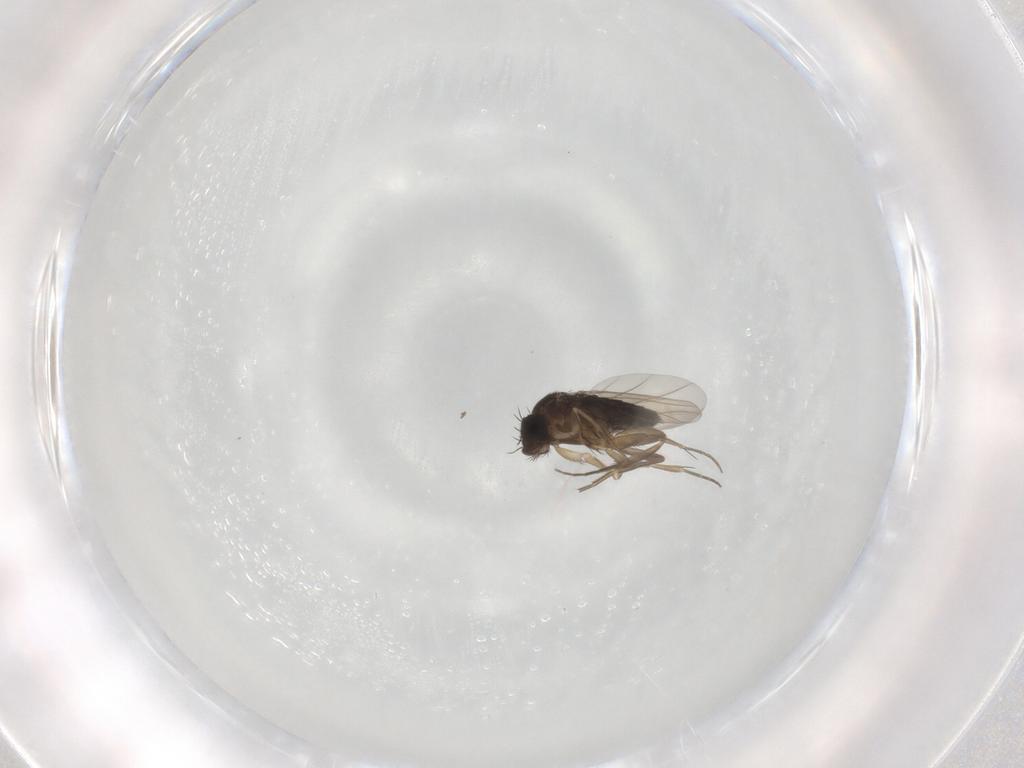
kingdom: Animalia
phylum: Arthropoda
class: Insecta
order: Diptera
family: Phoridae
